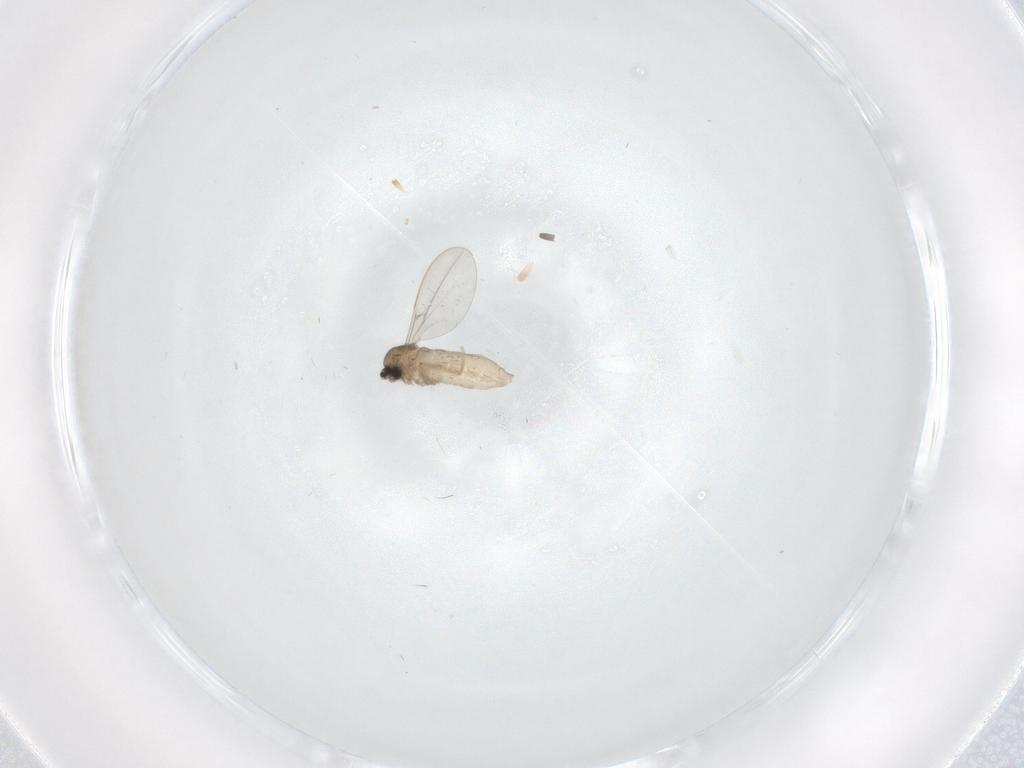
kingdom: Animalia
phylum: Arthropoda
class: Insecta
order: Diptera
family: Cecidomyiidae
